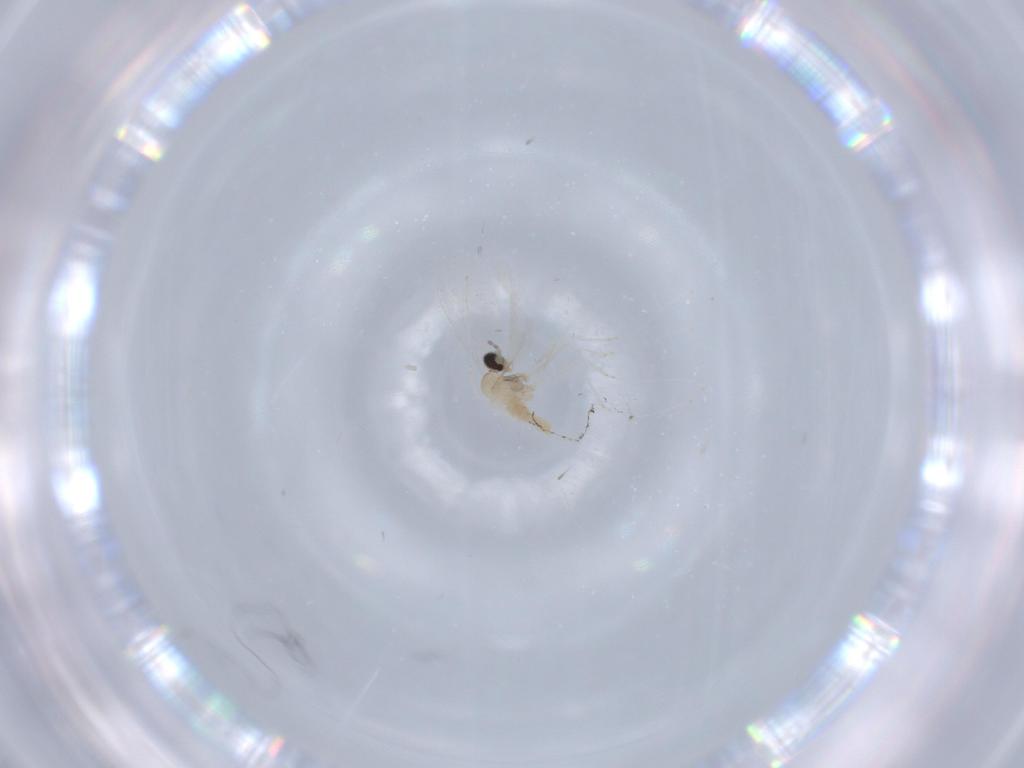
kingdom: Animalia
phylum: Arthropoda
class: Insecta
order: Diptera
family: Cecidomyiidae
